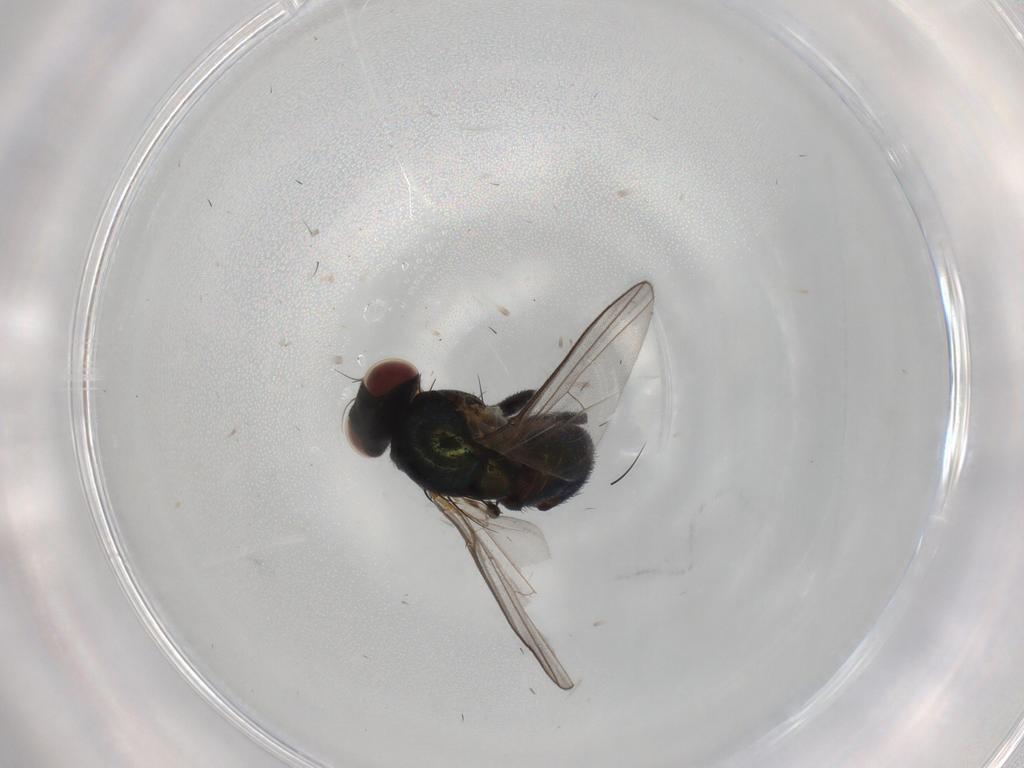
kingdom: Animalia
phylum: Arthropoda
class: Insecta
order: Diptera
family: Agromyzidae
